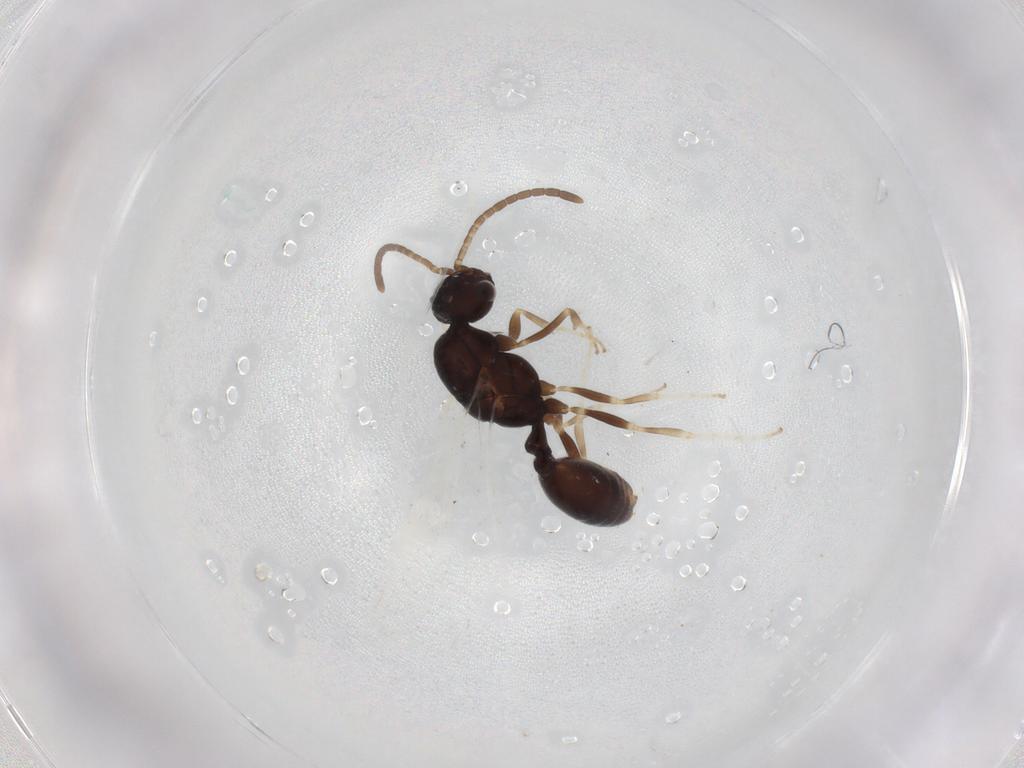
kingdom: Animalia
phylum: Arthropoda
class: Insecta
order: Hymenoptera
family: Formicidae
